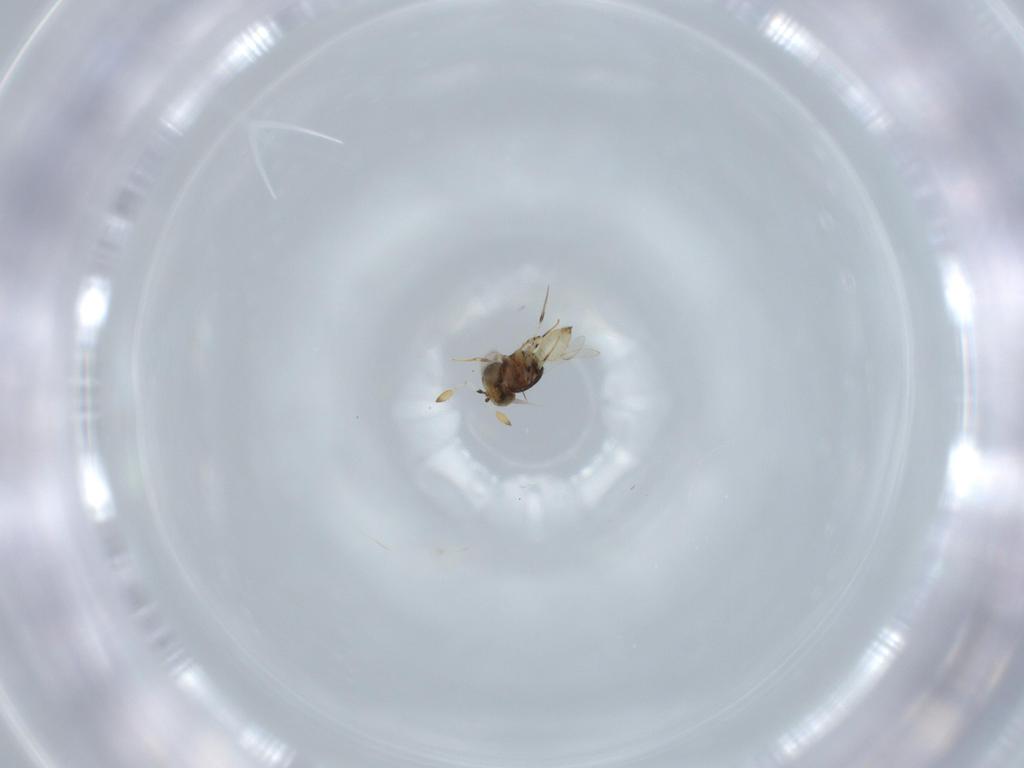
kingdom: Animalia
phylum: Arthropoda
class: Insecta
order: Hymenoptera
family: Scelionidae
